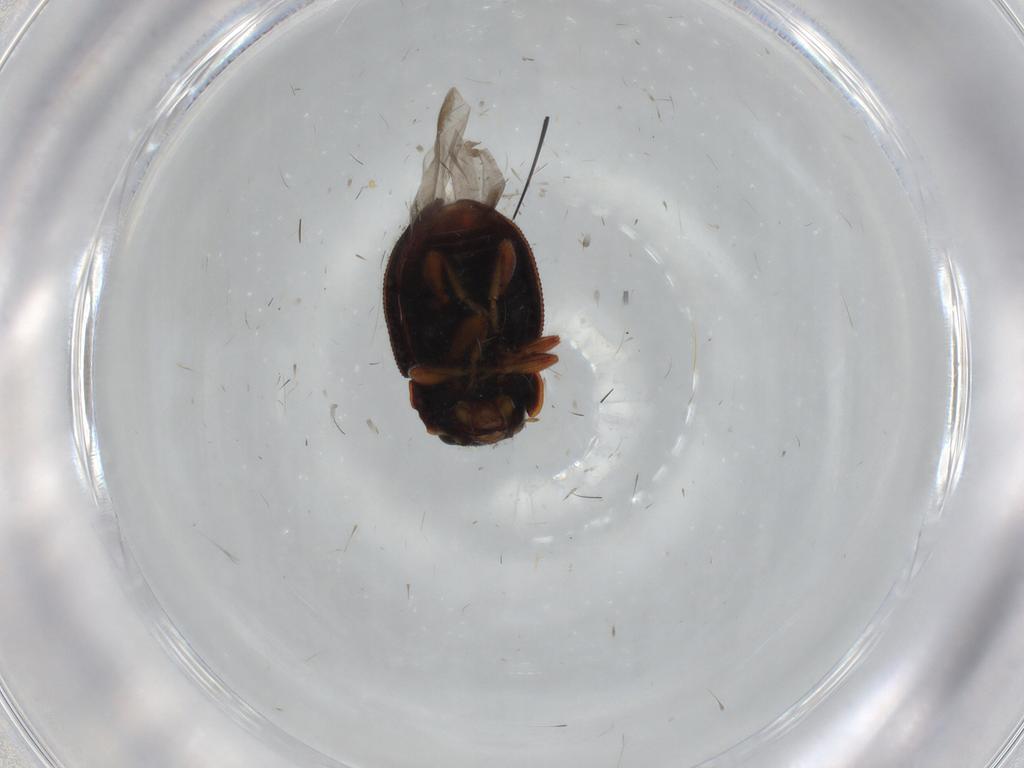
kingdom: Animalia
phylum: Arthropoda
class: Insecta
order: Coleoptera
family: Coccinellidae
